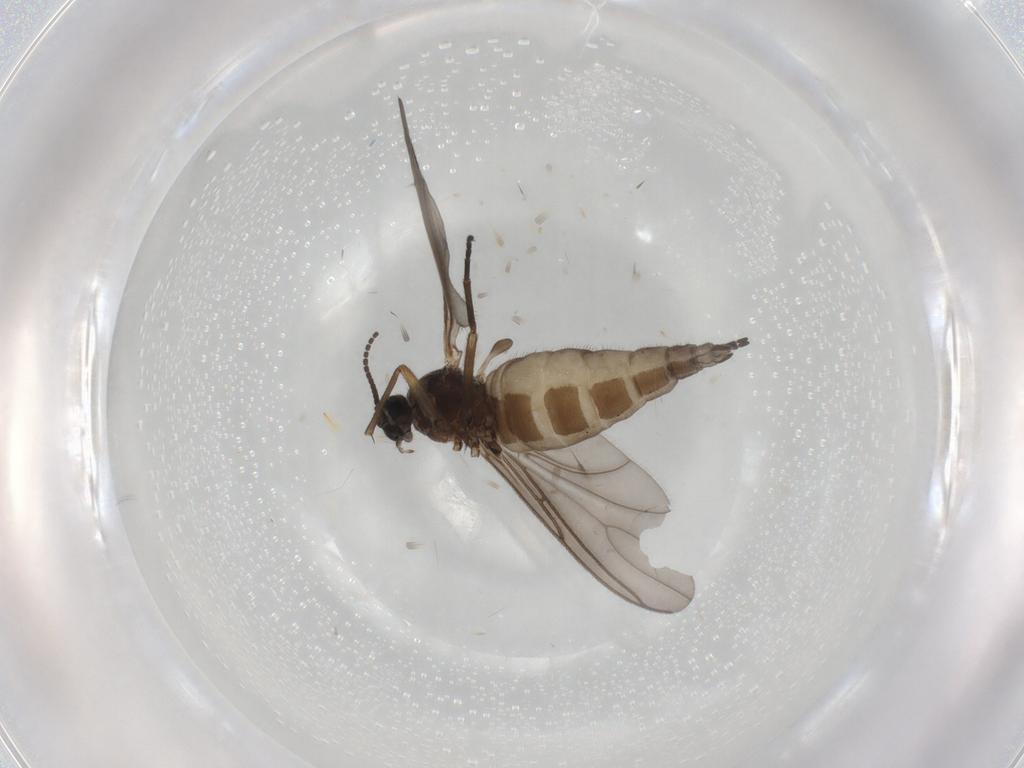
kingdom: Animalia
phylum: Arthropoda
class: Insecta
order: Diptera
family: Sciaridae
